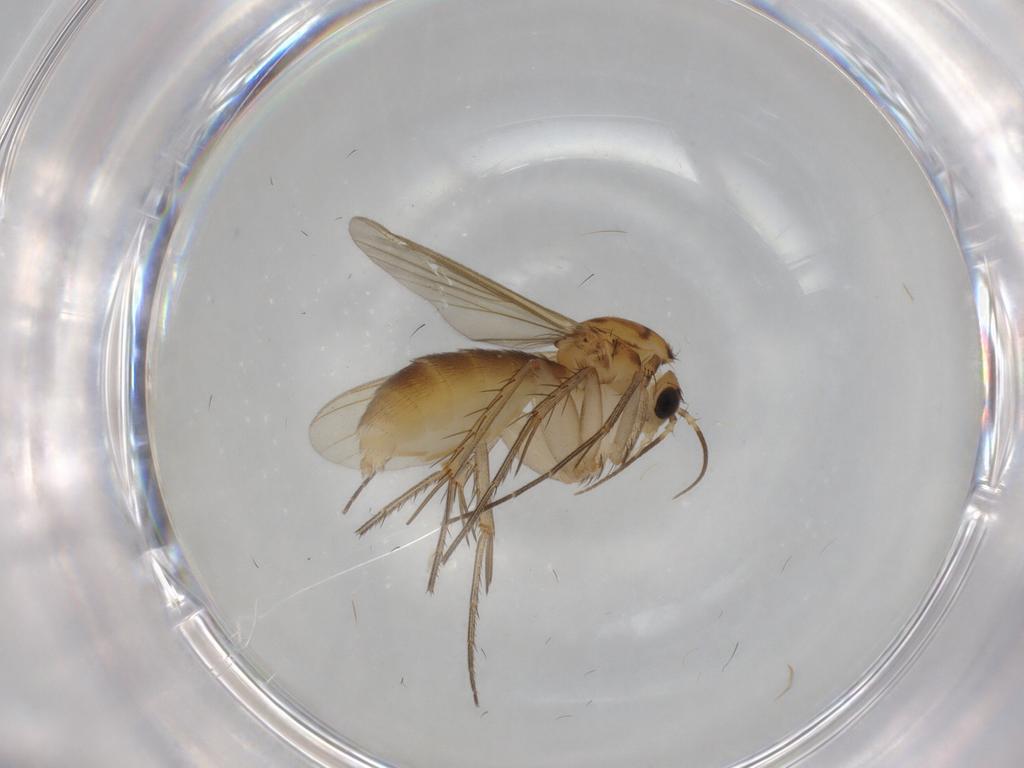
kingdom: Animalia
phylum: Arthropoda
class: Insecta
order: Diptera
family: Mycetophilidae
